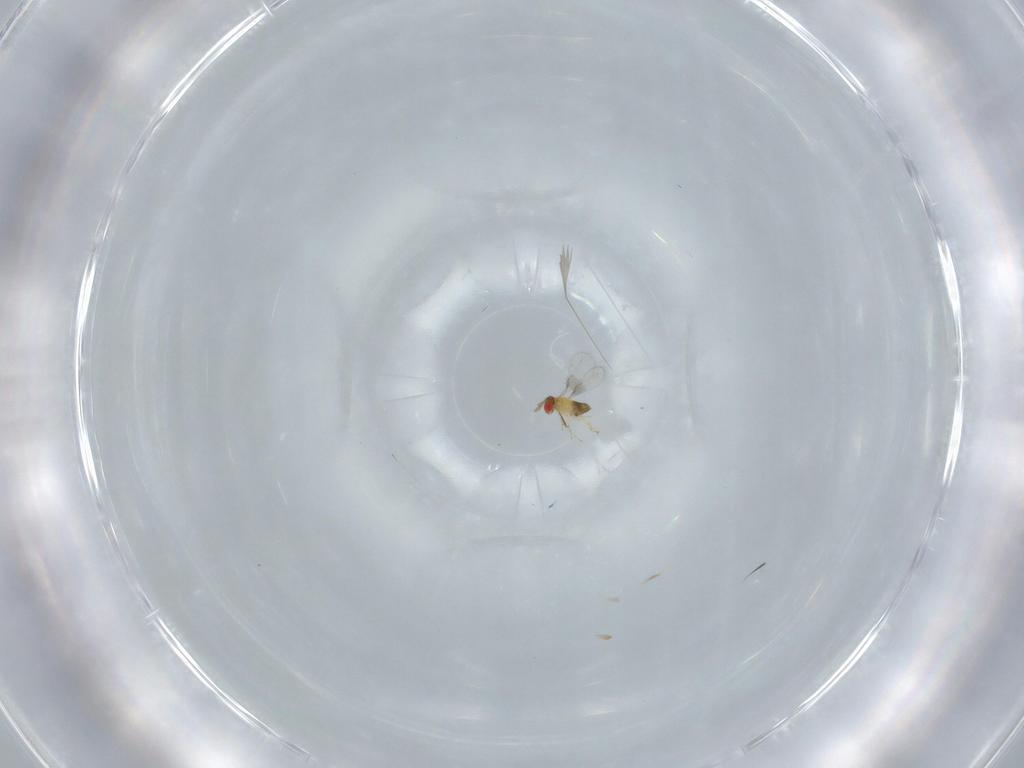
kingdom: Animalia
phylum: Arthropoda
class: Insecta
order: Hymenoptera
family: Trichogrammatidae
